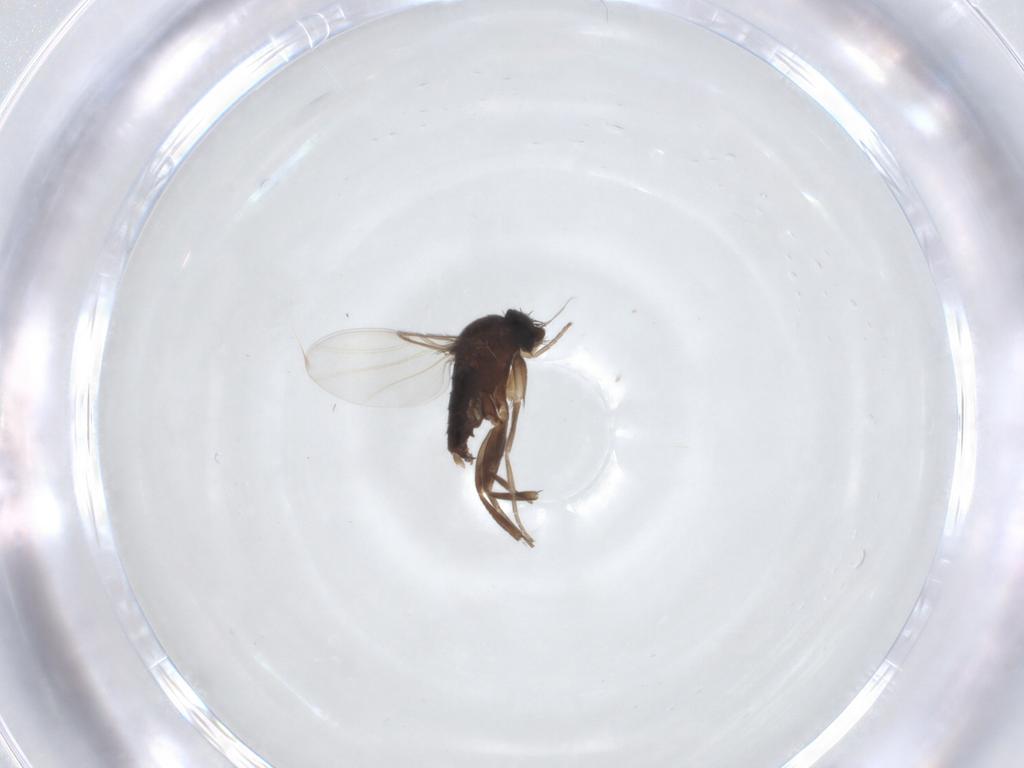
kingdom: Animalia
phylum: Arthropoda
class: Insecta
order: Diptera
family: Phoridae
